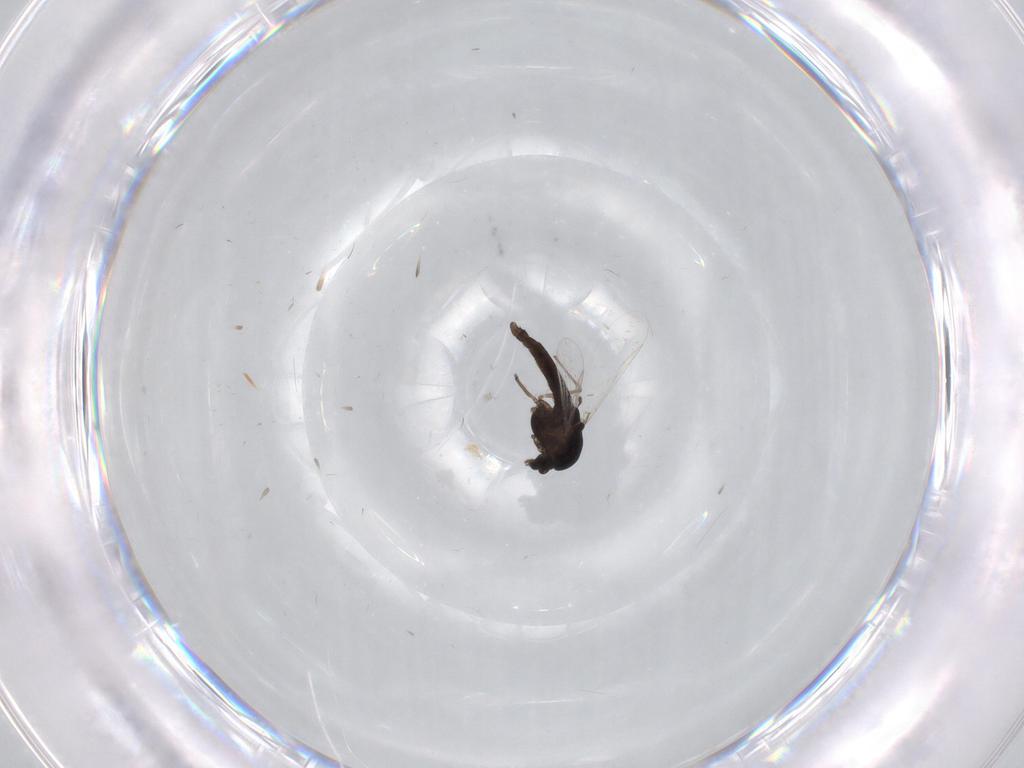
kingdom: Animalia
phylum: Arthropoda
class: Insecta
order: Diptera
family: Chironomidae
